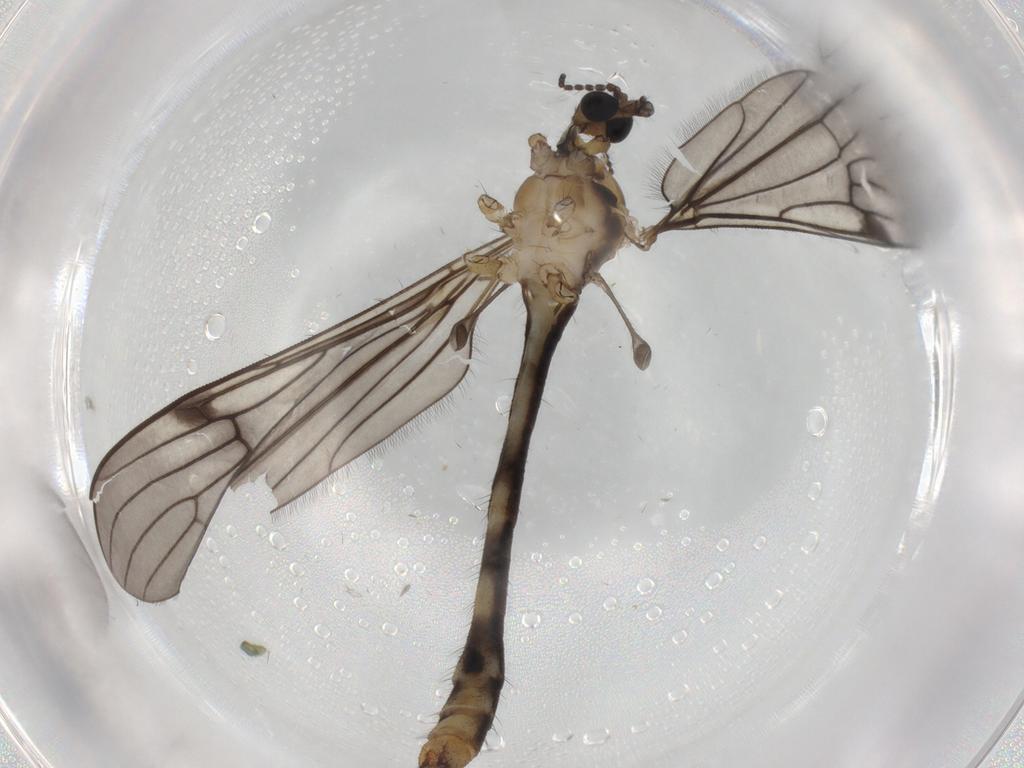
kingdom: Animalia
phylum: Arthropoda
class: Insecta
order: Diptera
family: Limoniidae
